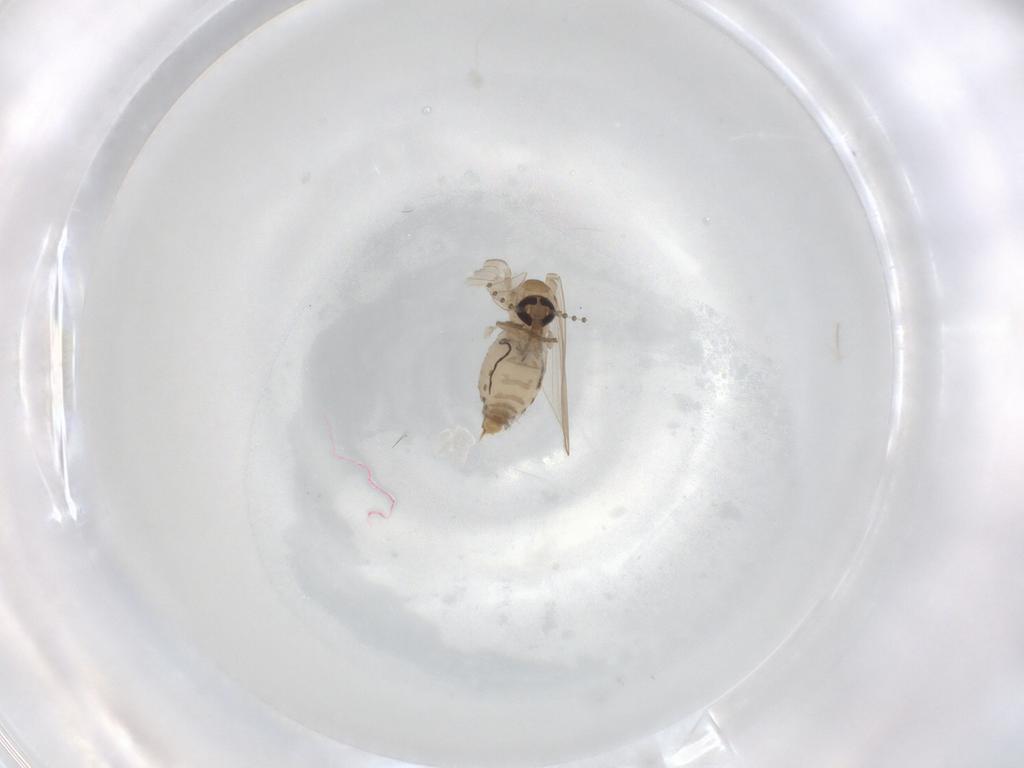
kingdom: Animalia
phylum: Arthropoda
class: Insecta
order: Diptera
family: Psychodidae
